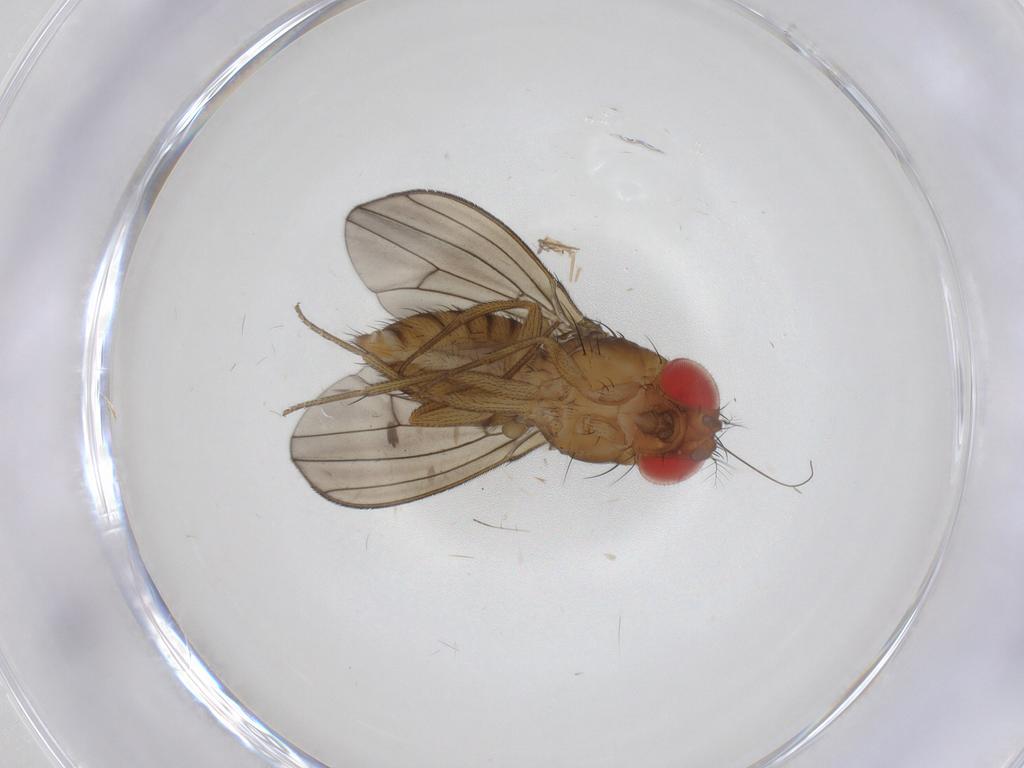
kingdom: Animalia
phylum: Arthropoda
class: Insecta
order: Diptera
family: Drosophilidae
